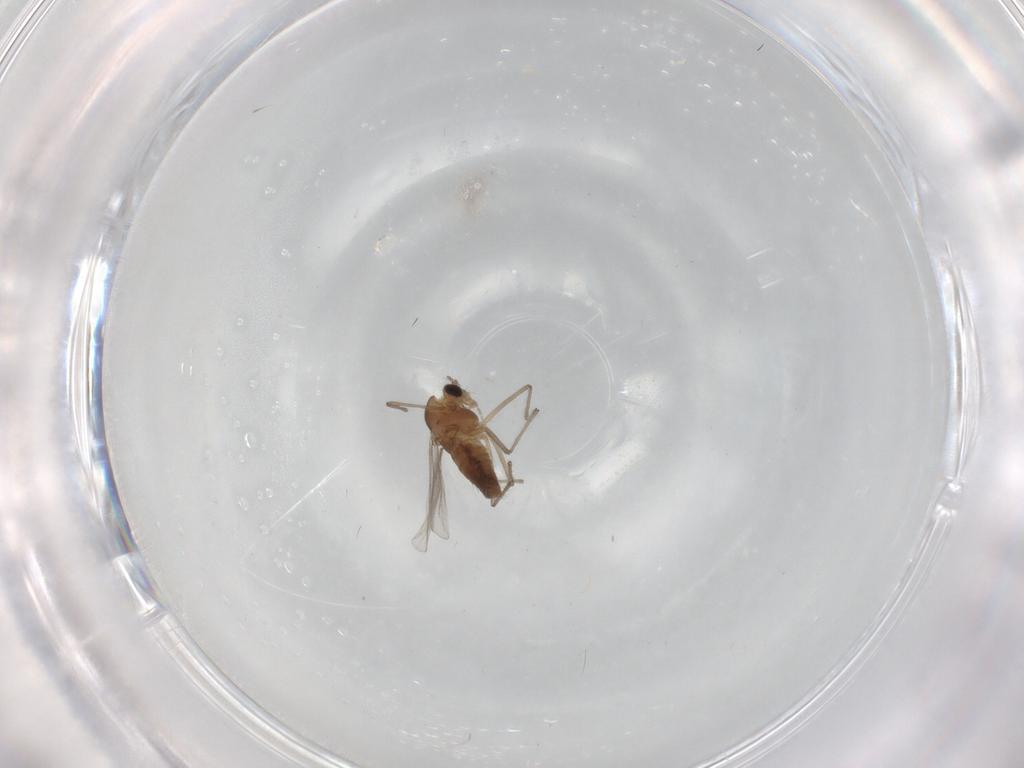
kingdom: Animalia
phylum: Arthropoda
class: Insecta
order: Diptera
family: Chironomidae
